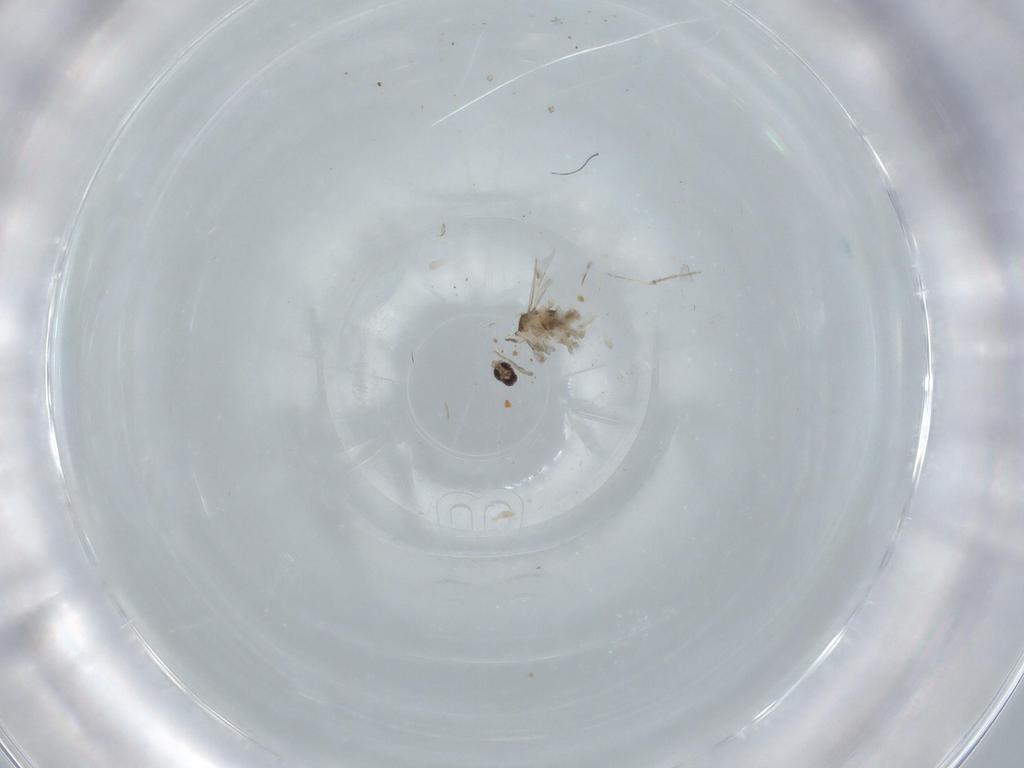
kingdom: Animalia
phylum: Arthropoda
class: Insecta
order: Diptera
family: Cecidomyiidae
